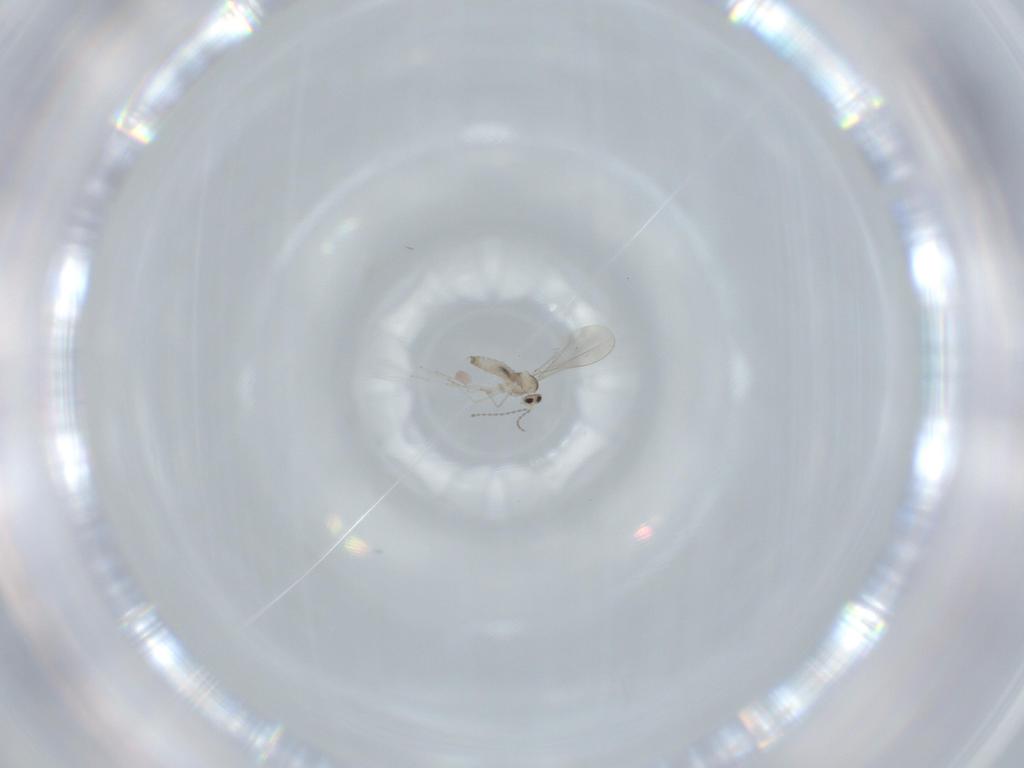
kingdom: Animalia
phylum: Arthropoda
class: Insecta
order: Diptera
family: Cecidomyiidae
